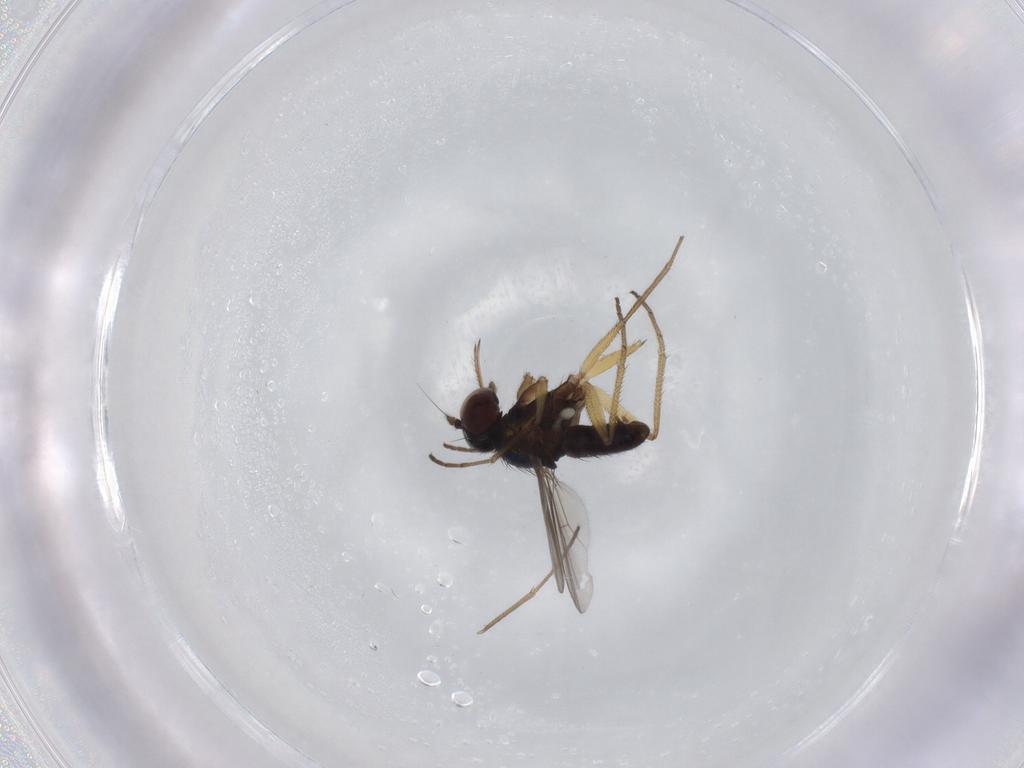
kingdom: Animalia
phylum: Arthropoda
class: Insecta
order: Diptera
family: Dolichopodidae
